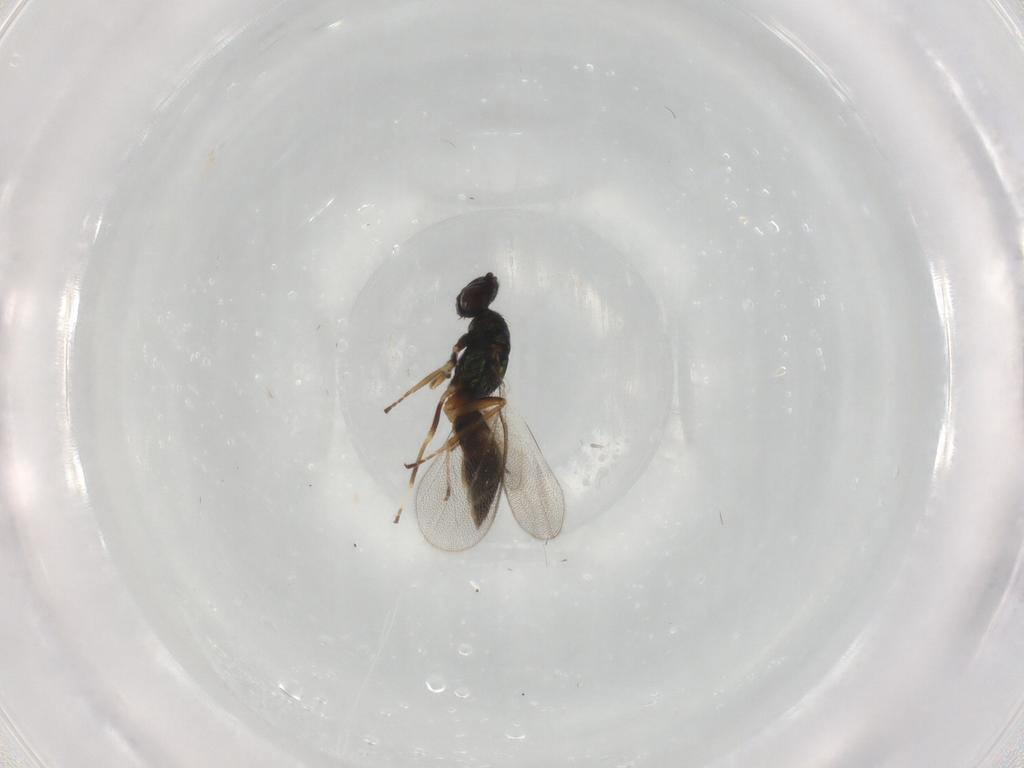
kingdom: Animalia
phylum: Arthropoda
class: Insecta
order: Hymenoptera
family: Eulophidae
